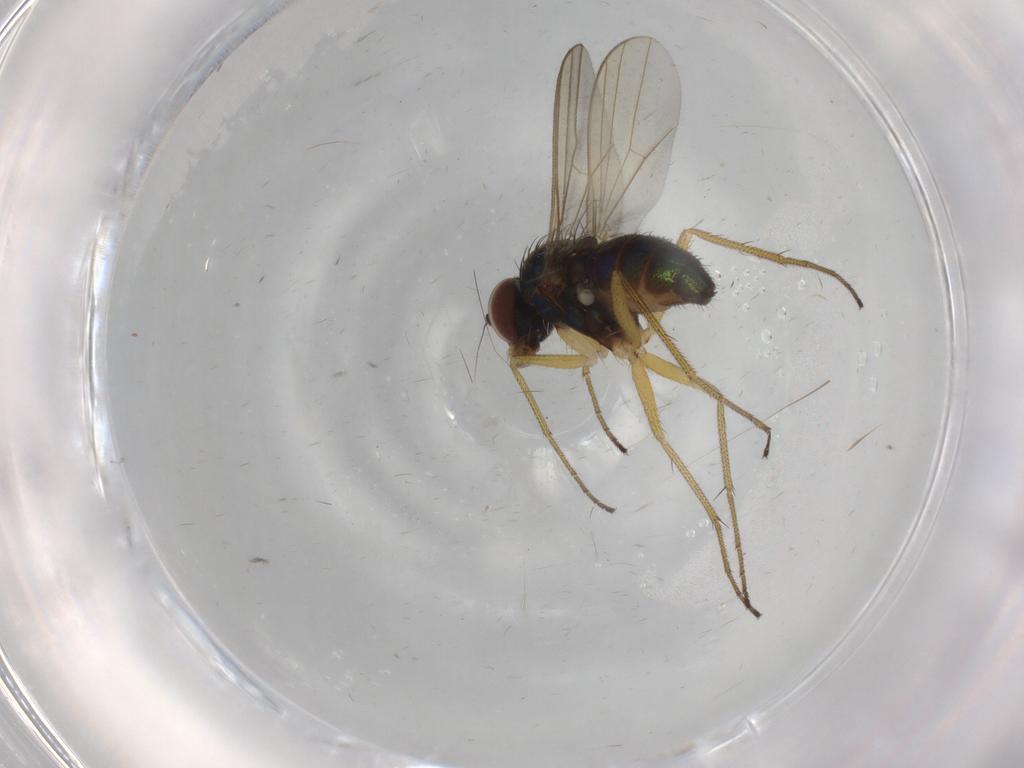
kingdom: Animalia
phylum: Arthropoda
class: Insecta
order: Diptera
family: Dolichopodidae
